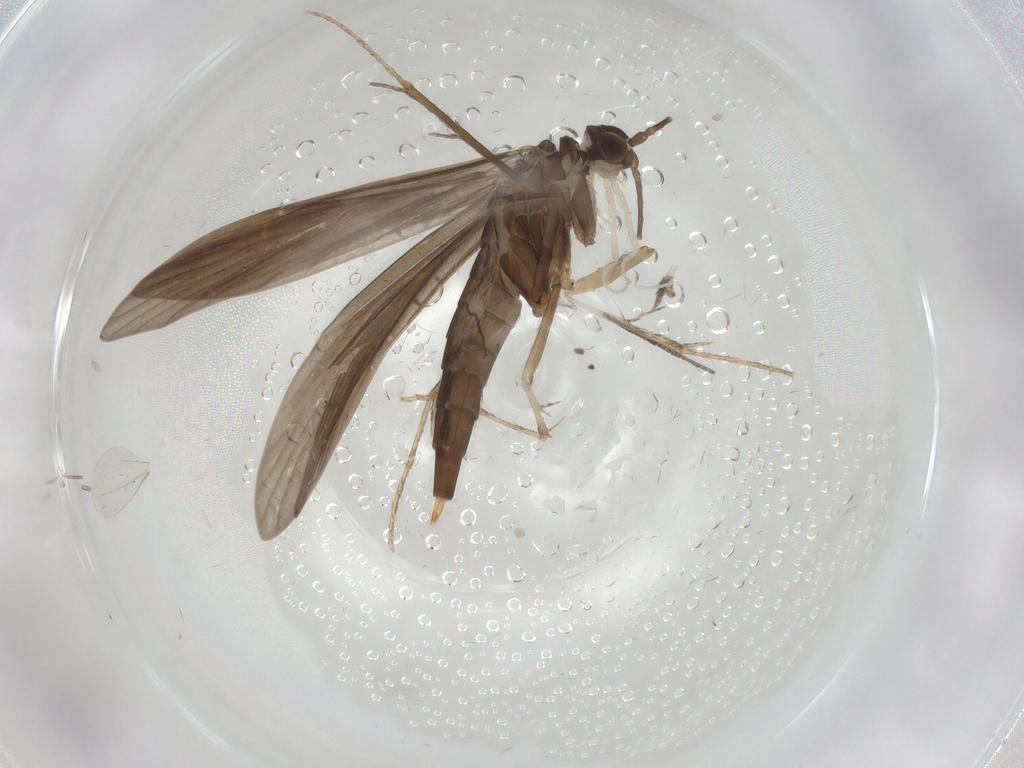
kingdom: Animalia
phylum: Arthropoda
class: Insecta
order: Trichoptera
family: Xiphocentronidae
